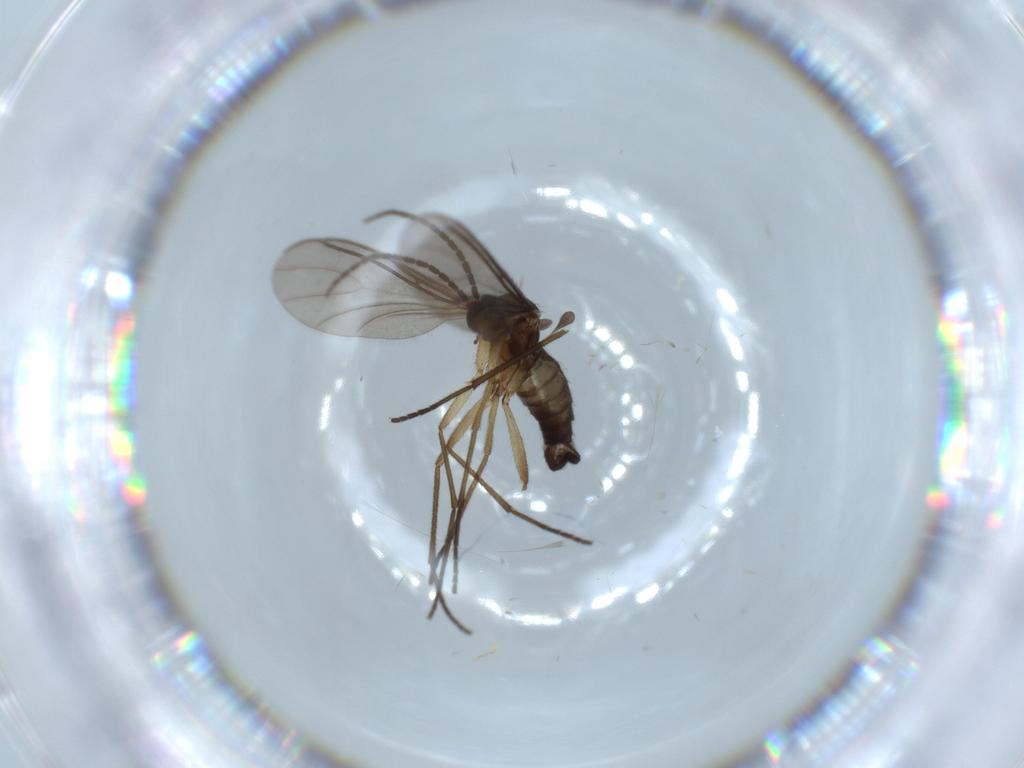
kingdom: Animalia
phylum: Arthropoda
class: Insecta
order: Diptera
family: Sciaridae
